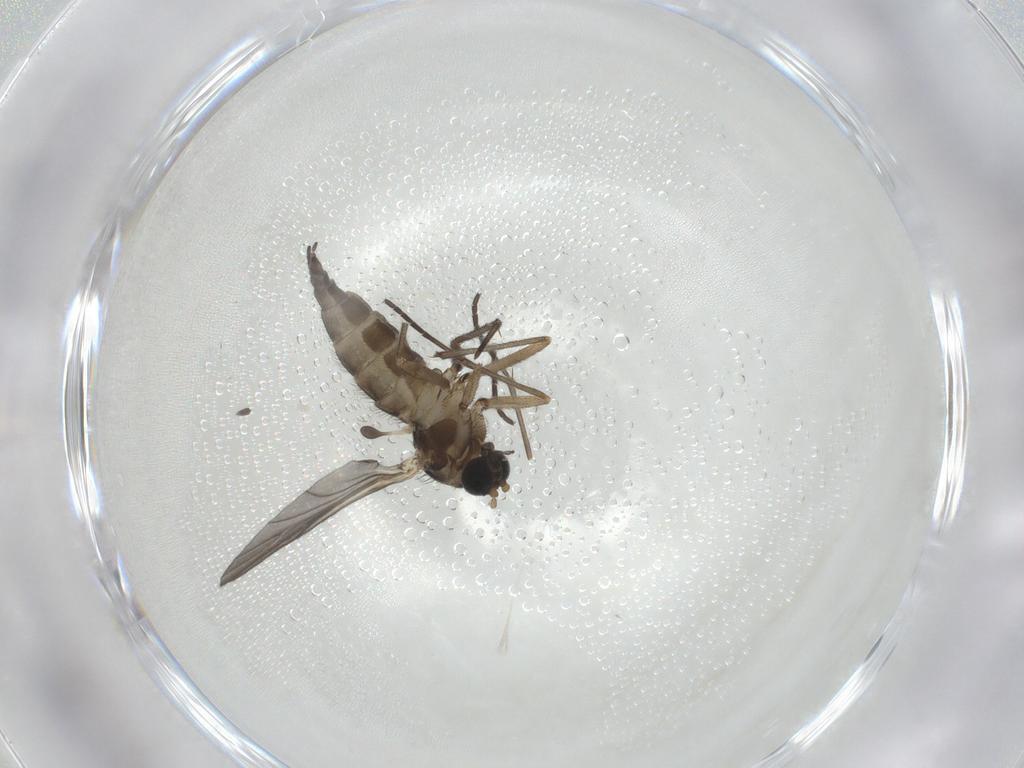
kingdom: Animalia
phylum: Arthropoda
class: Insecta
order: Diptera
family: Sciaridae
